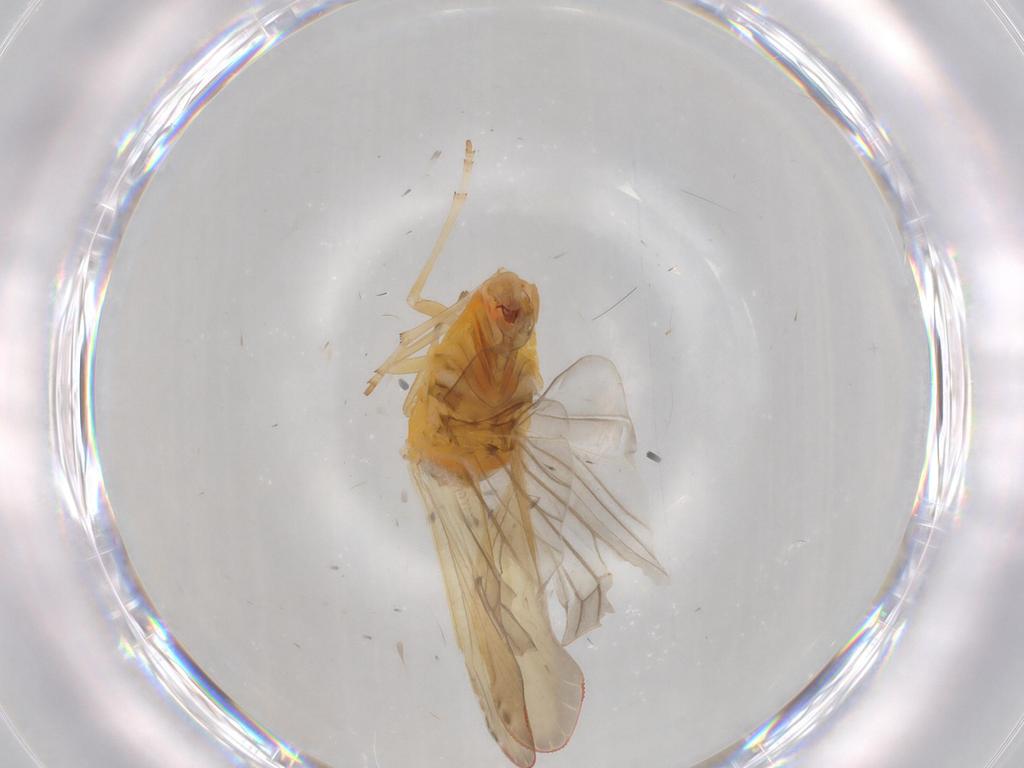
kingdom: Animalia
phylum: Arthropoda
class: Insecta
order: Hemiptera
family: Derbidae
